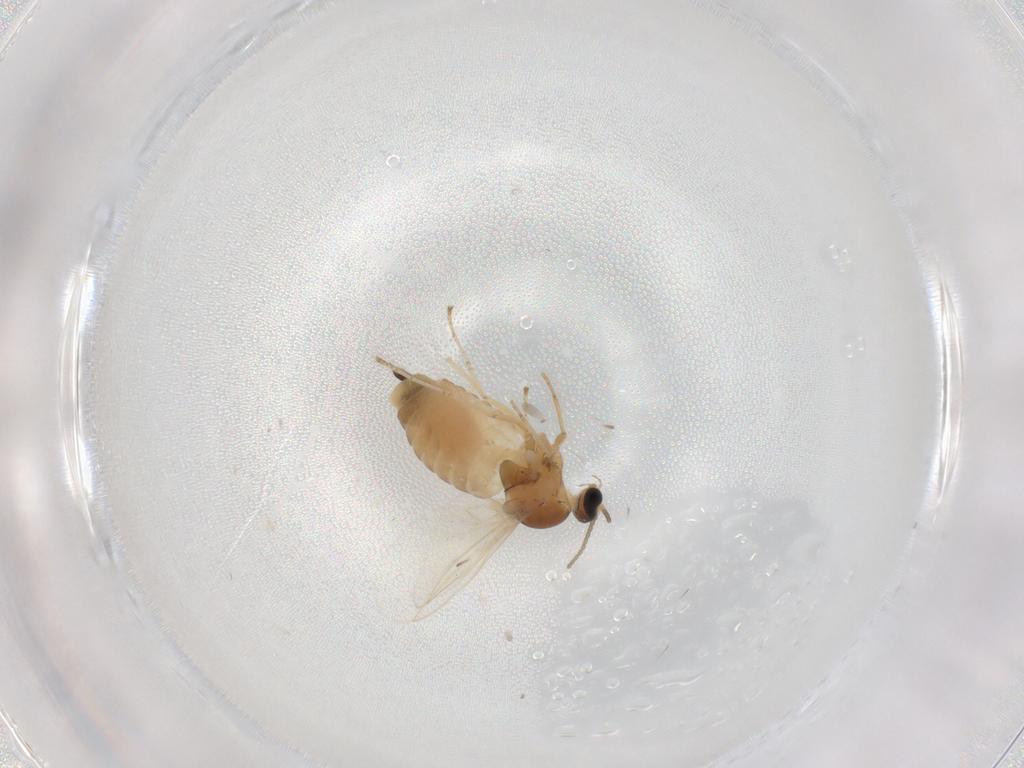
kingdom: Animalia
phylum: Arthropoda
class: Insecta
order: Diptera
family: Cecidomyiidae
